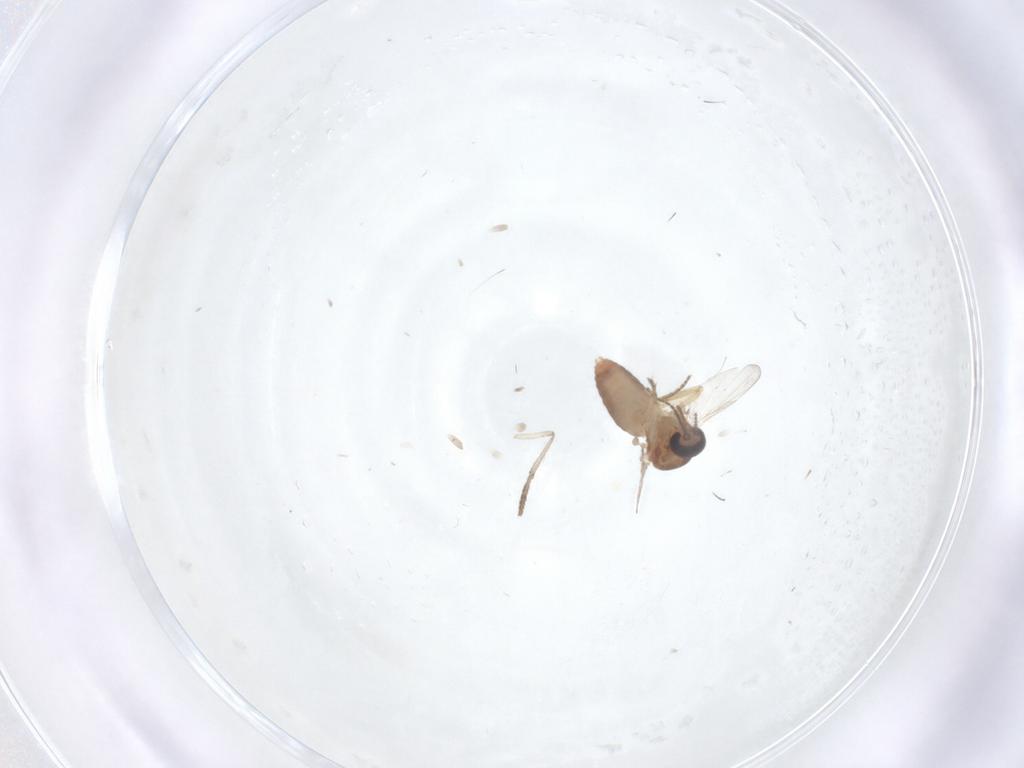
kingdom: Animalia
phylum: Arthropoda
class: Insecta
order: Diptera
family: Ceratopogonidae
